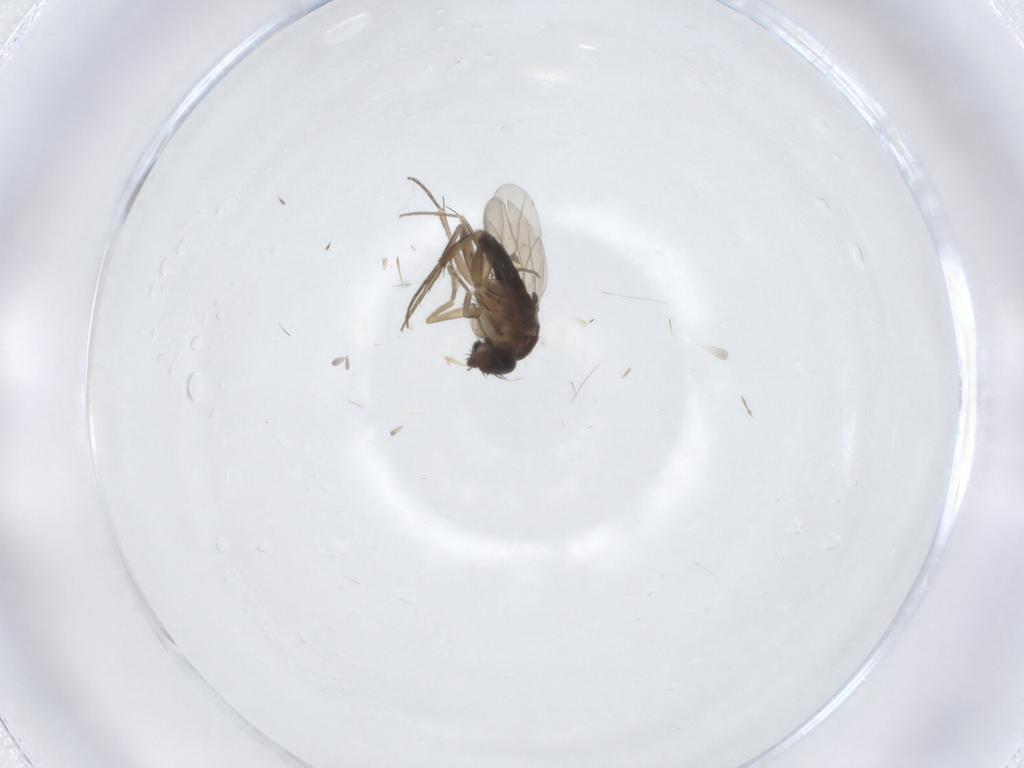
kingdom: Animalia
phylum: Arthropoda
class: Insecta
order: Diptera
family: Phoridae
